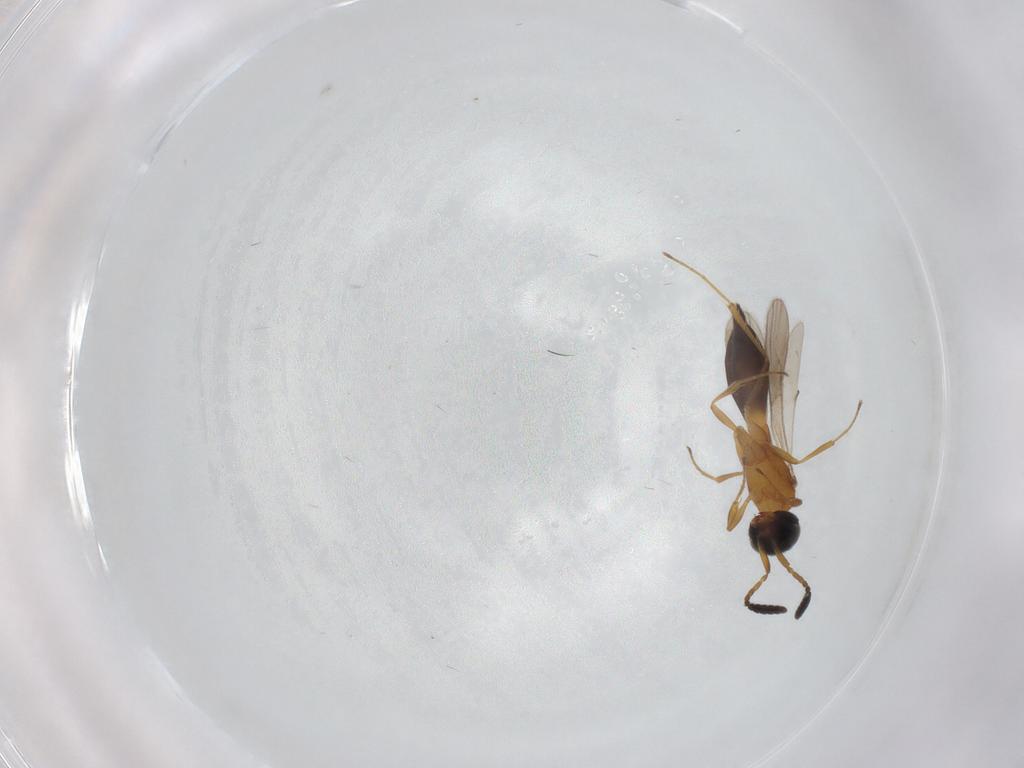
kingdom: Animalia
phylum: Arthropoda
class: Insecta
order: Hymenoptera
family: Scelionidae
